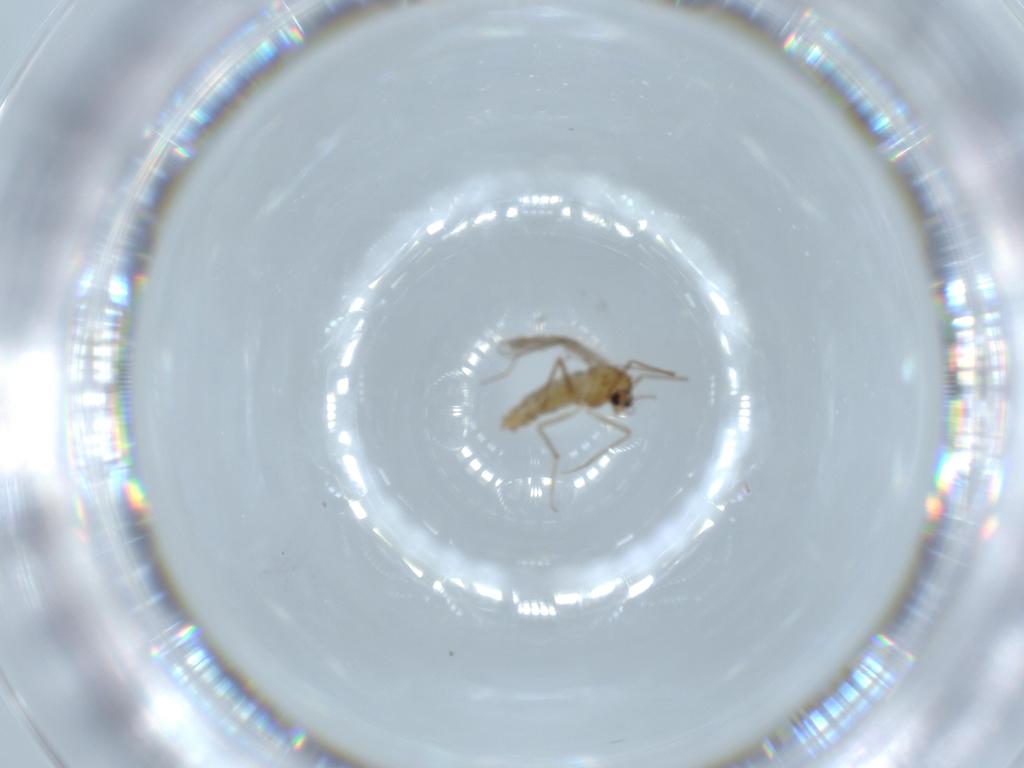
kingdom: Animalia
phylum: Arthropoda
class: Insecta
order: Diptera
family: Chironomidae
